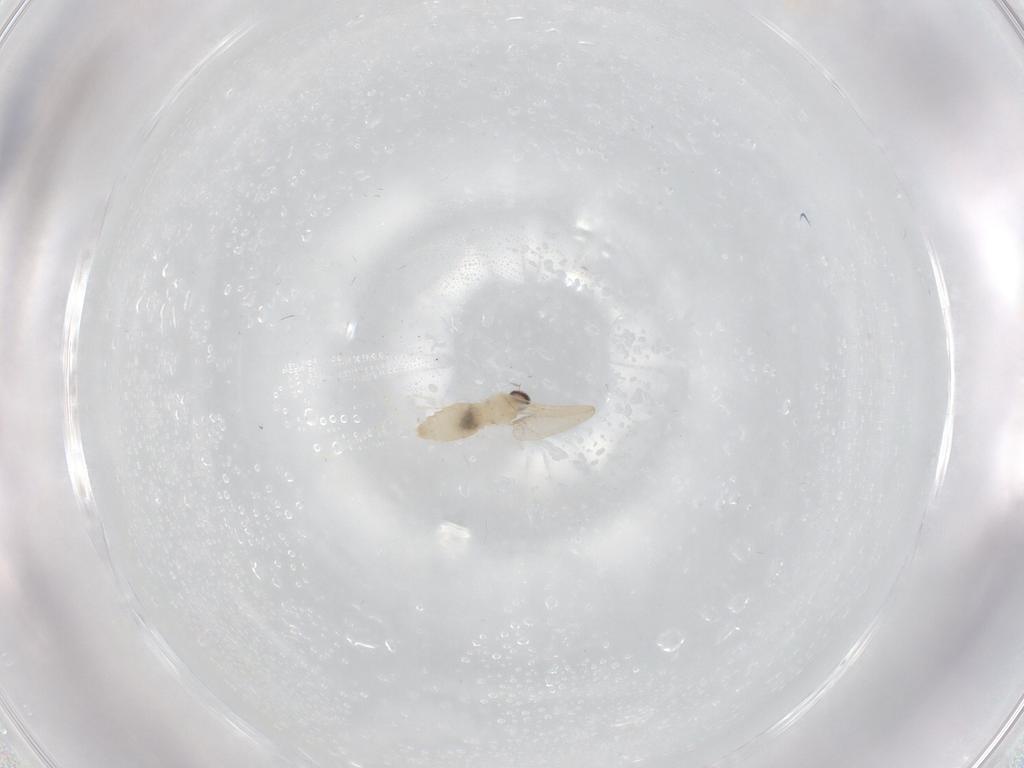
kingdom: Animalia
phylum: Arthropoda
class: Insecta
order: Diptera
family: Cecidomyiidae
